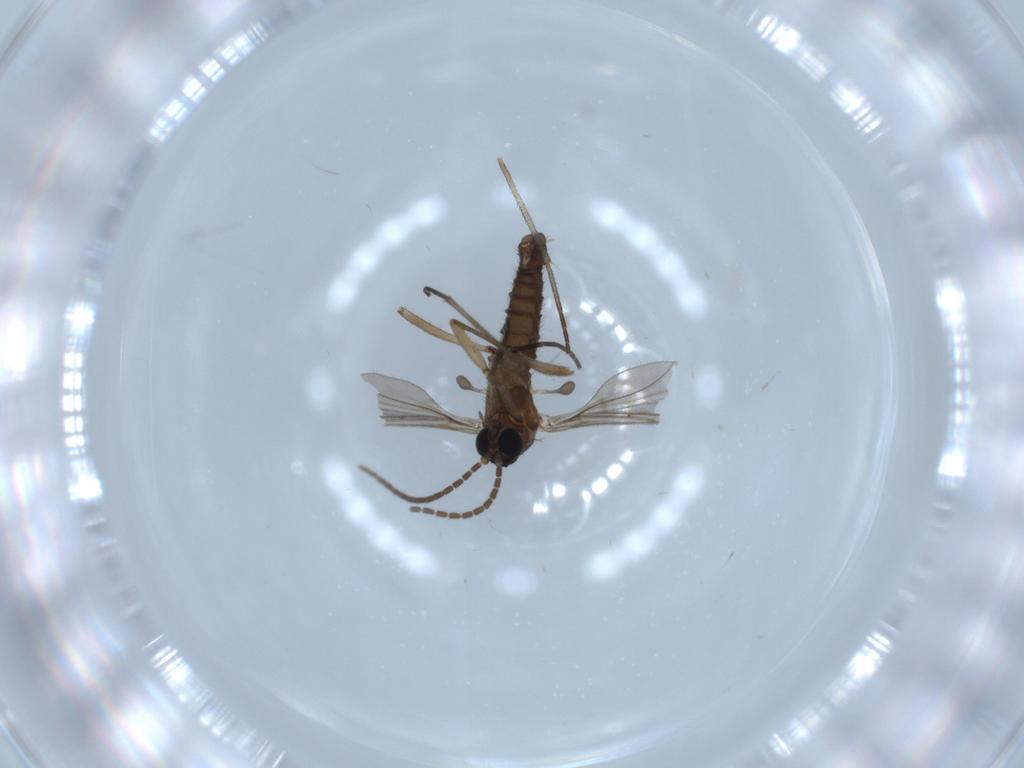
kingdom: Animalia
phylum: Arthropoda
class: Insecta
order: Diptera
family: Sciaridae
